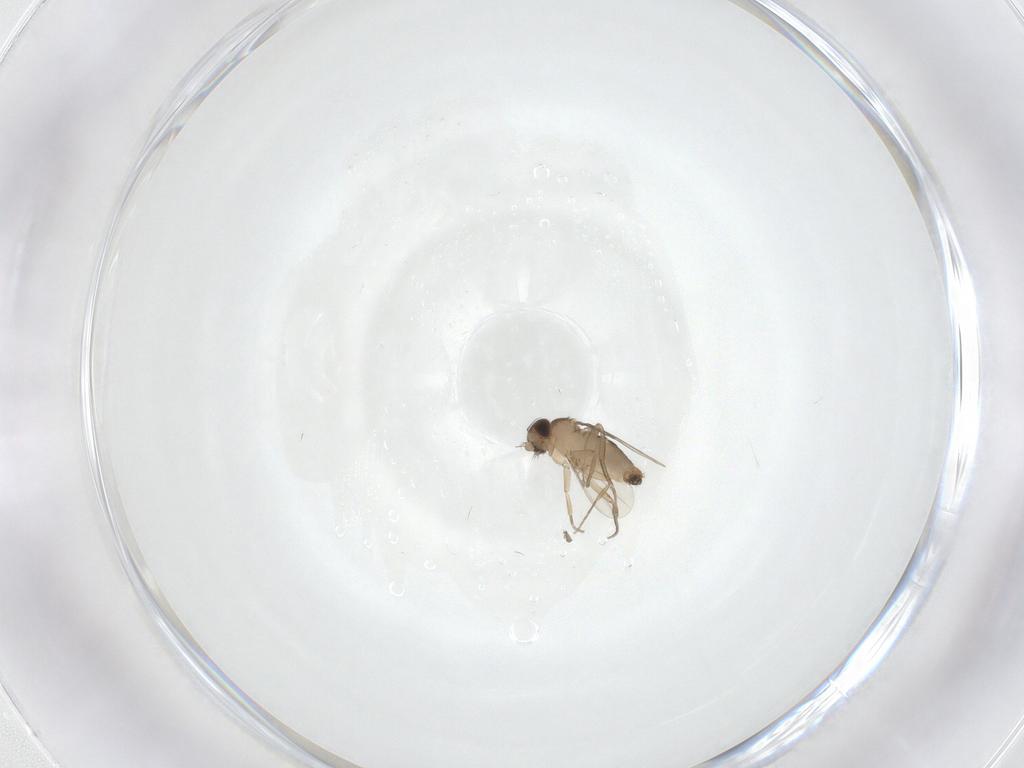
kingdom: Animalia
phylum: Arthropoda
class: Insecta
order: Diptera
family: Phoridae
